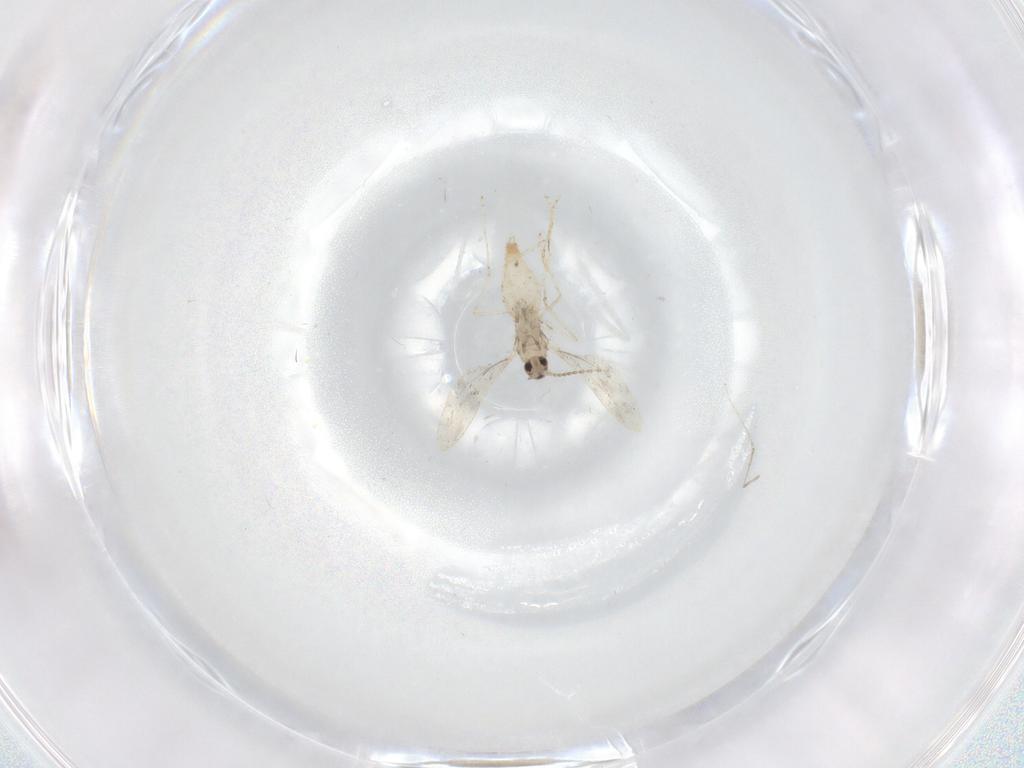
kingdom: Animalia
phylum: Arthropoda
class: Insecta
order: Diptera
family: Cecidomyiidae
